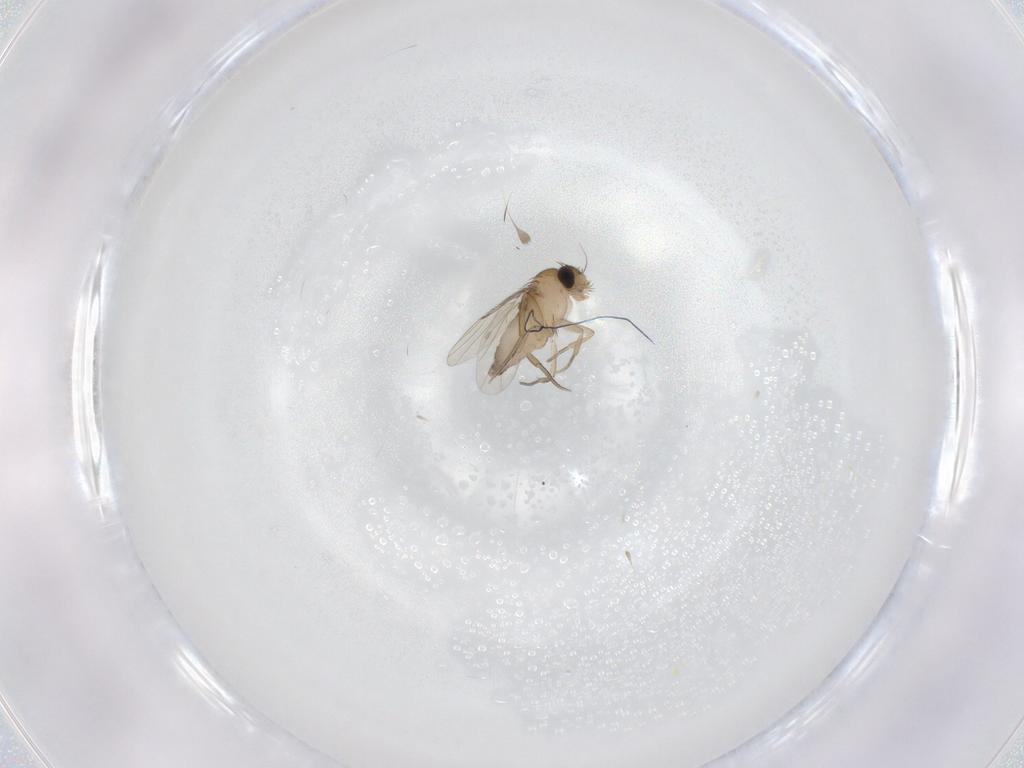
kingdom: Animalia
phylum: Arthropoda
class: Insecta
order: Diptera
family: Phoridae
